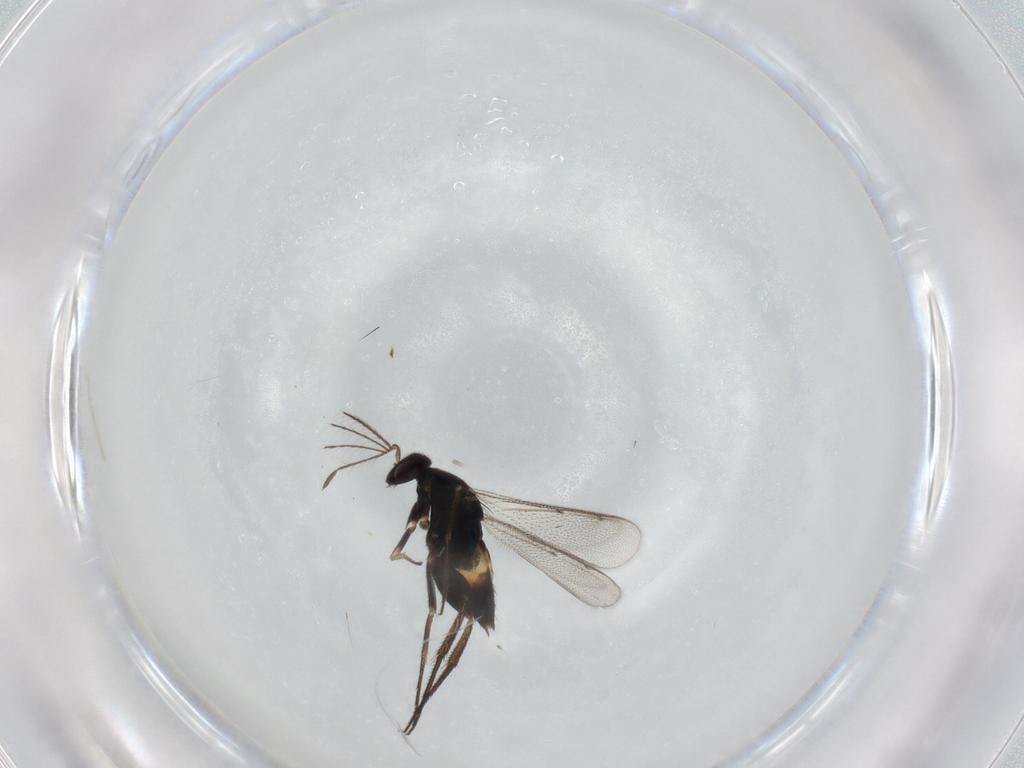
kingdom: Animalia
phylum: Arthropoda
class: Insecta
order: Hymenoptera
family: Eulophidae
